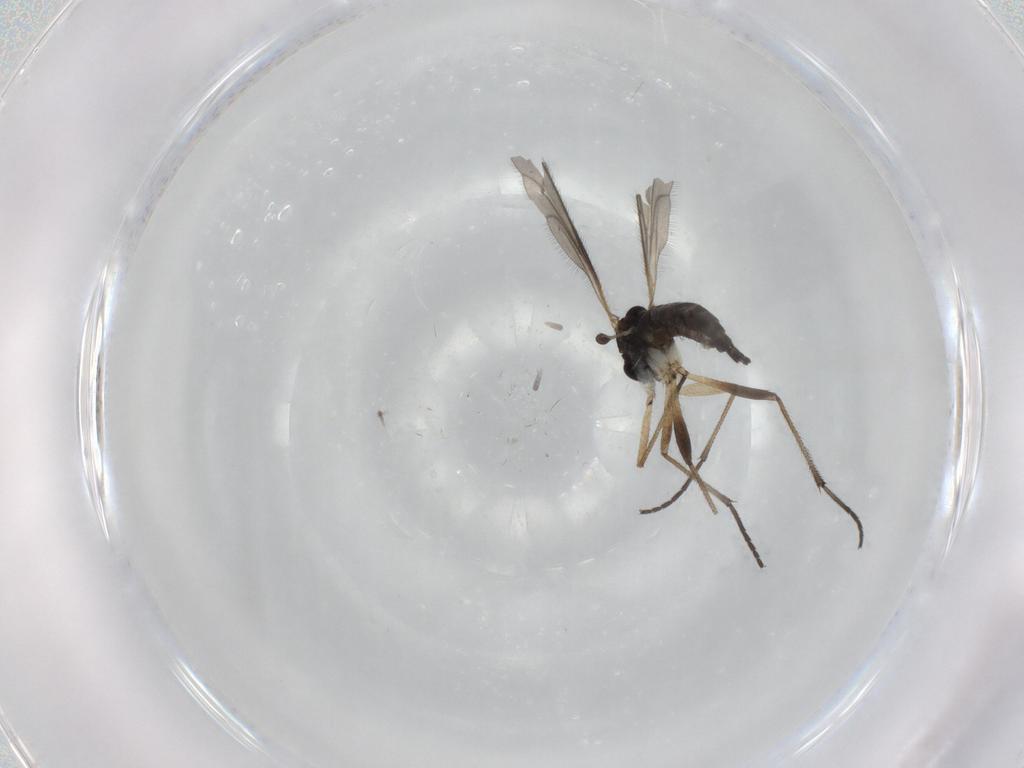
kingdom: Animalia
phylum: Arthropoda
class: Insecta
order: Diptera
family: Sciaridae
